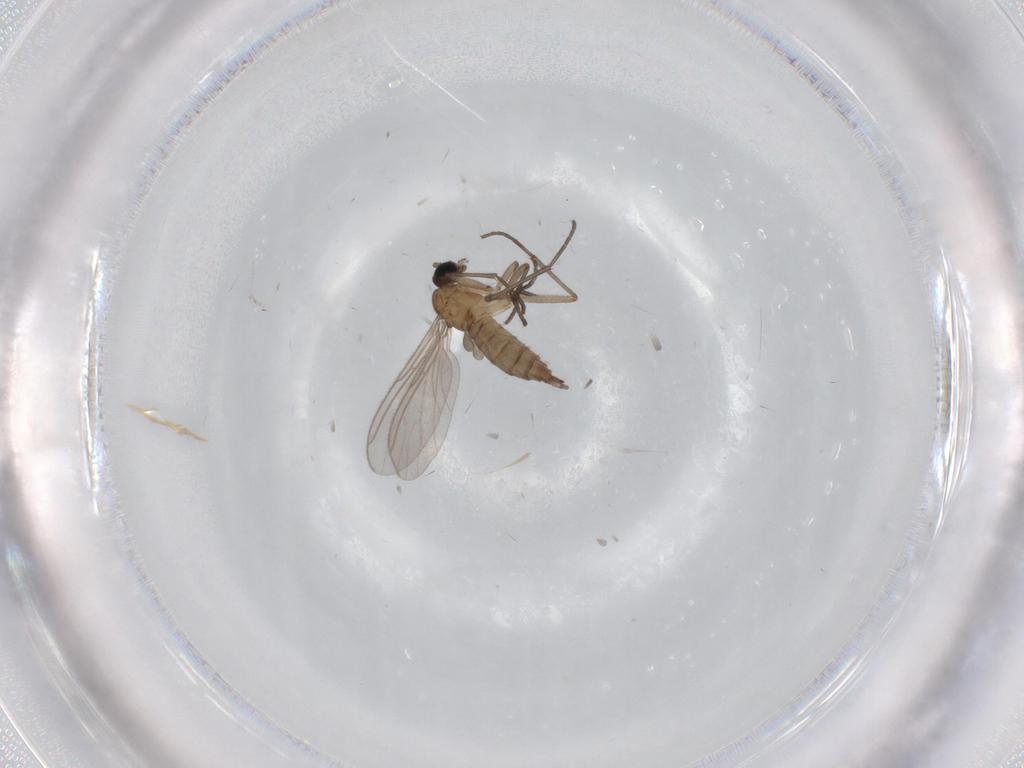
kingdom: Animalia
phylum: Arthropoda
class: Insecta
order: Diptera
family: Sciaridae
